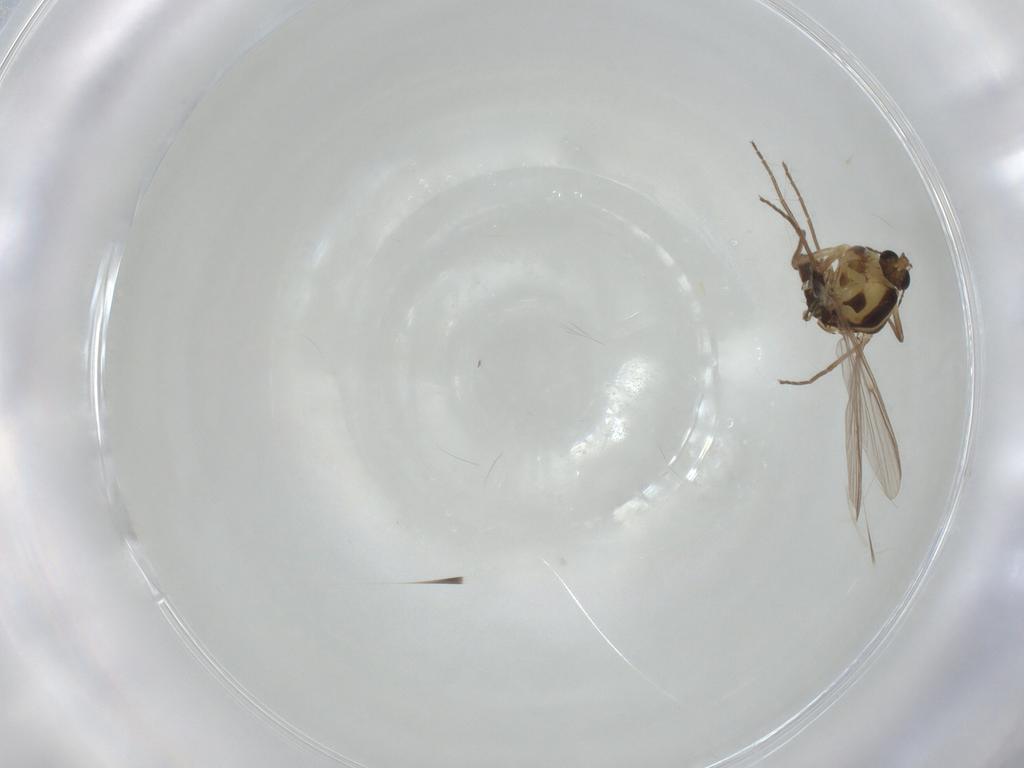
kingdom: Animalia
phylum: Arthropoda
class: Insecta
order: Diptera
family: Chironomidae
